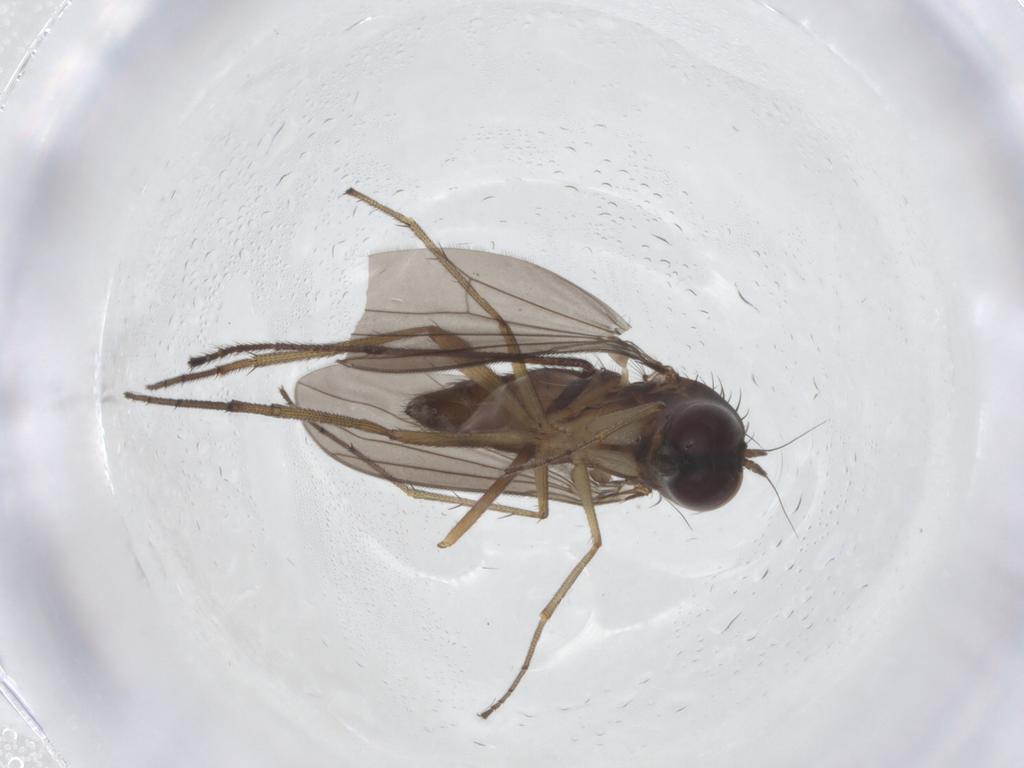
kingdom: Animalia
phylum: Arthropoda
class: Insecta
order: Diptera
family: Dolichopodidae
